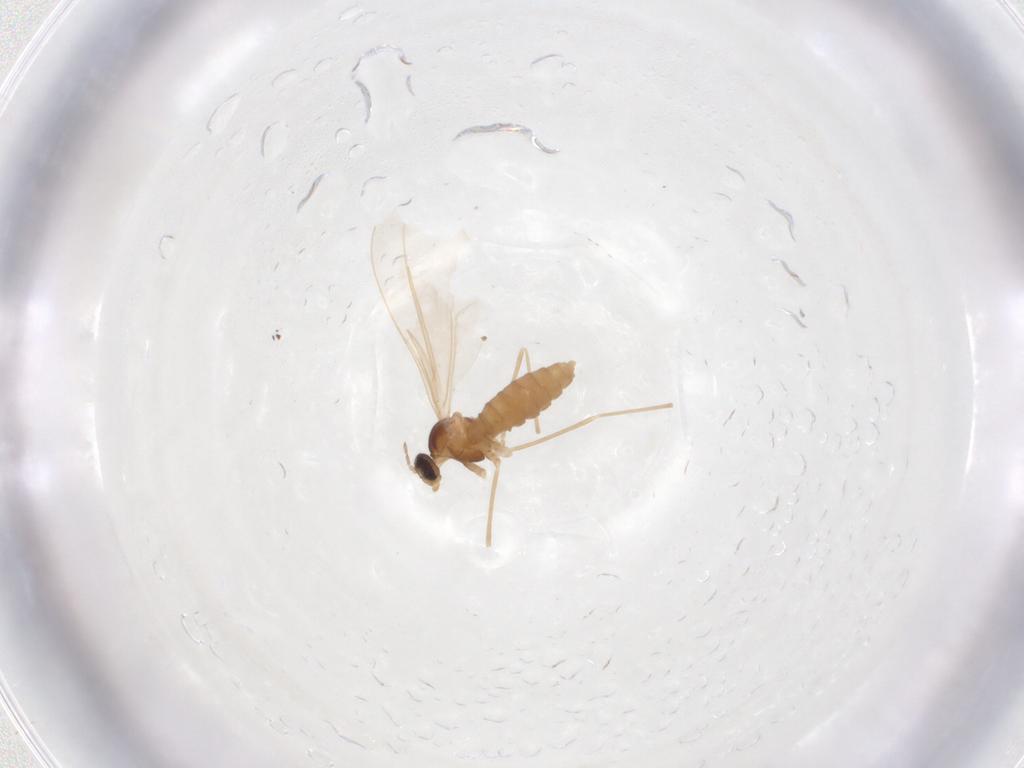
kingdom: Animalia
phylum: Arthropoda
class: Insecta
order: Diptera
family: Cecidomyiidae
